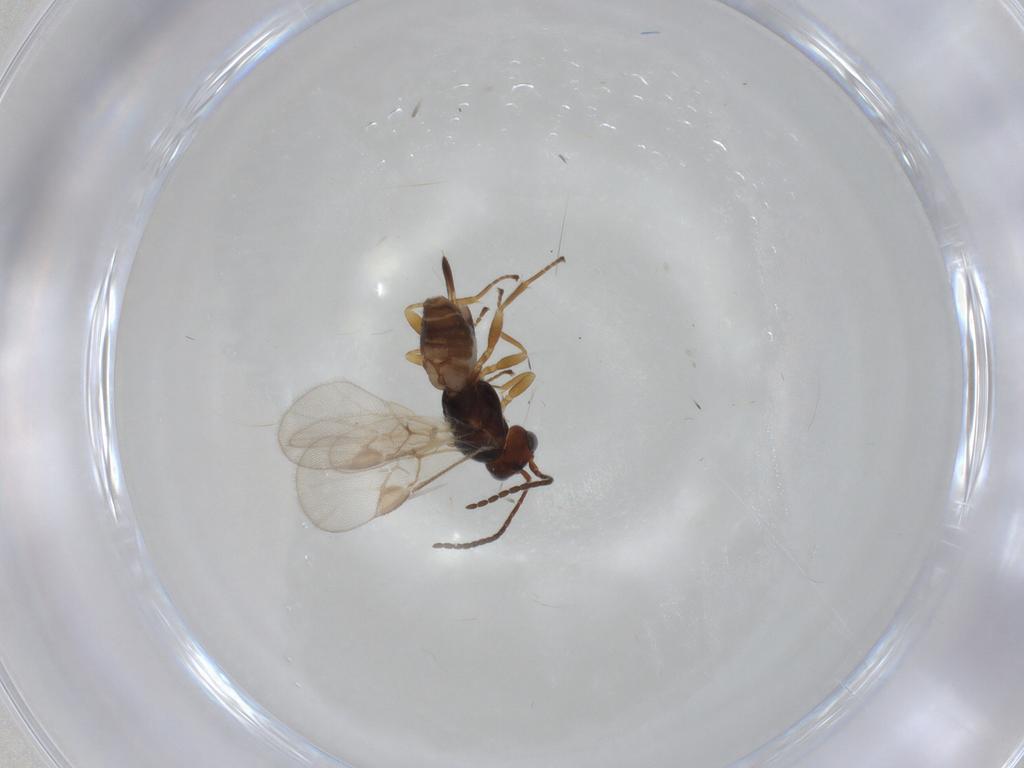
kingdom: Animalia
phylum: Arthropoda
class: Insecta
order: Hymenoptera
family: Braconidae
